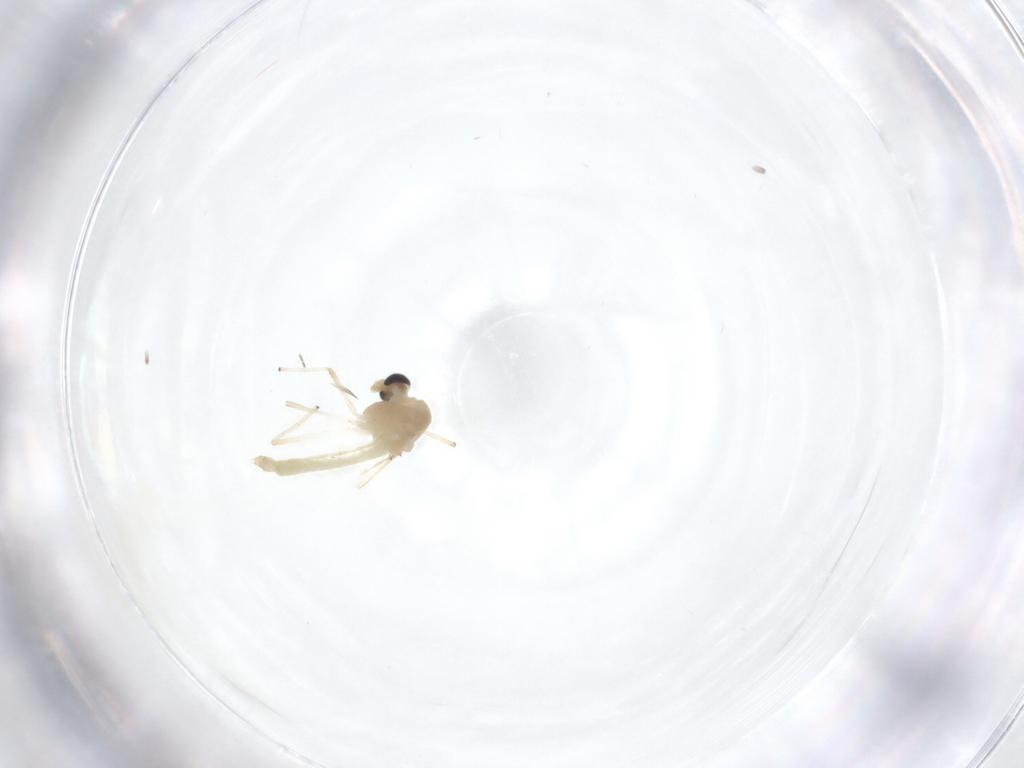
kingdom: Animalia
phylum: Arthropoda
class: Insecta
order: Diptera
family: Chironomidae
